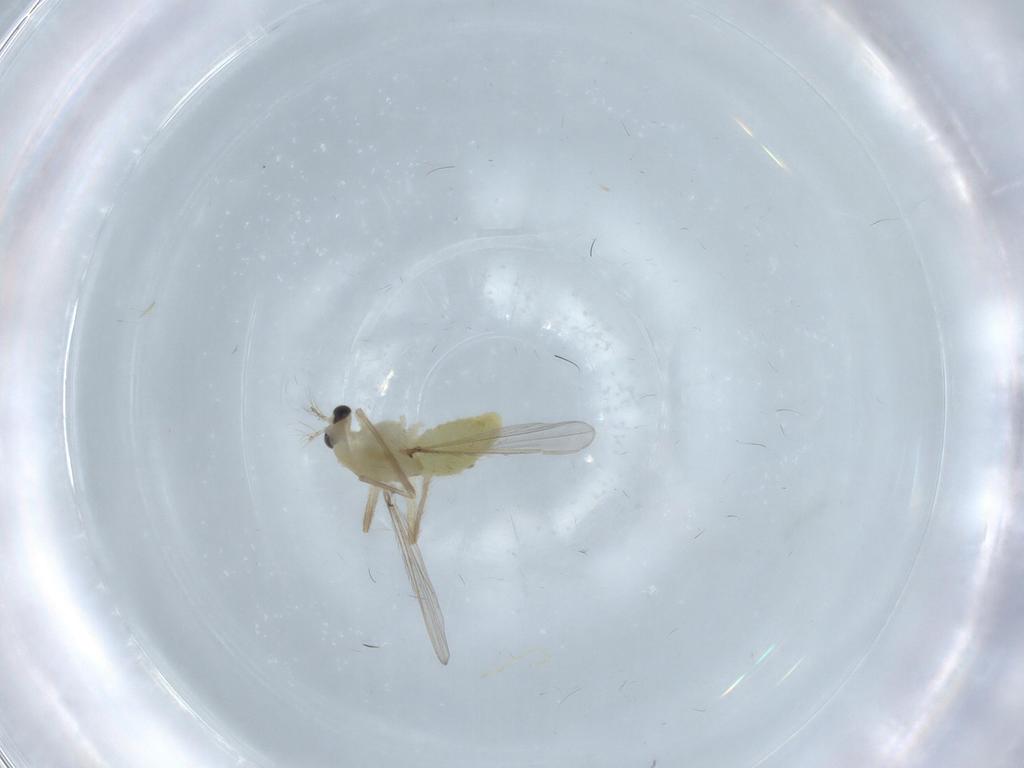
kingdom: Animalia
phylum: Arthropoda
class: Insecta
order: Diptera
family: Chironomidae
